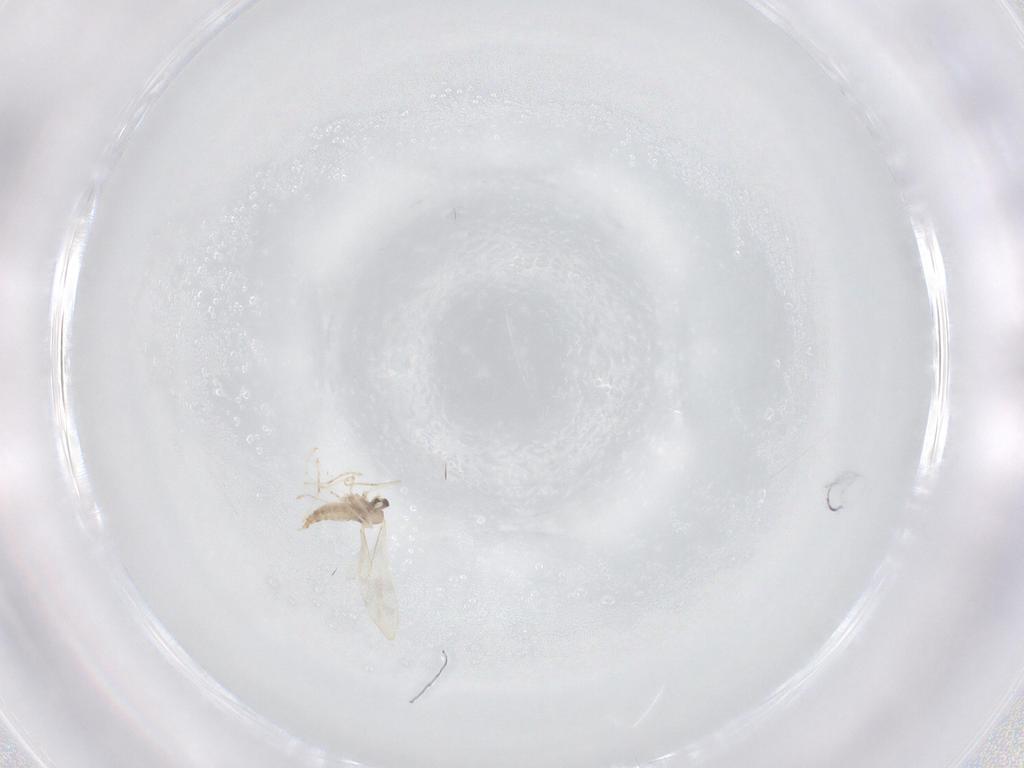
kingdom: Animalia
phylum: Arthropoda
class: Insecta
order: Diptera
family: Cecidomyiidae
